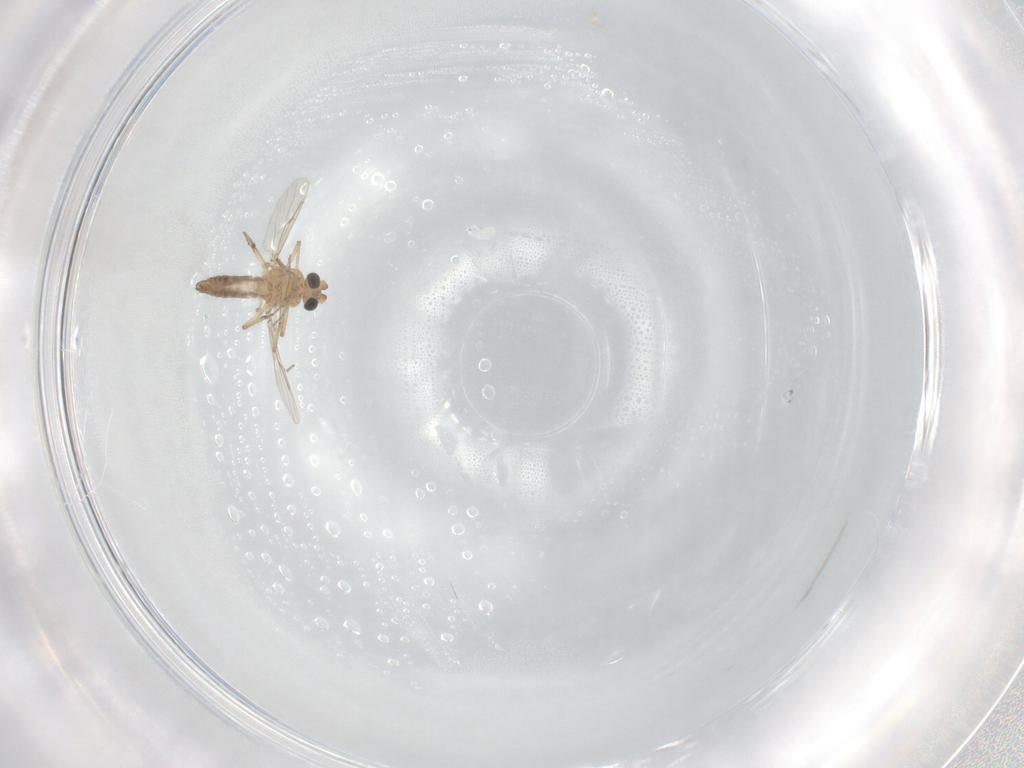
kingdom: Animalia
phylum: Arthropoda
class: Insecta
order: Diptera
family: Ceratopogonidae
